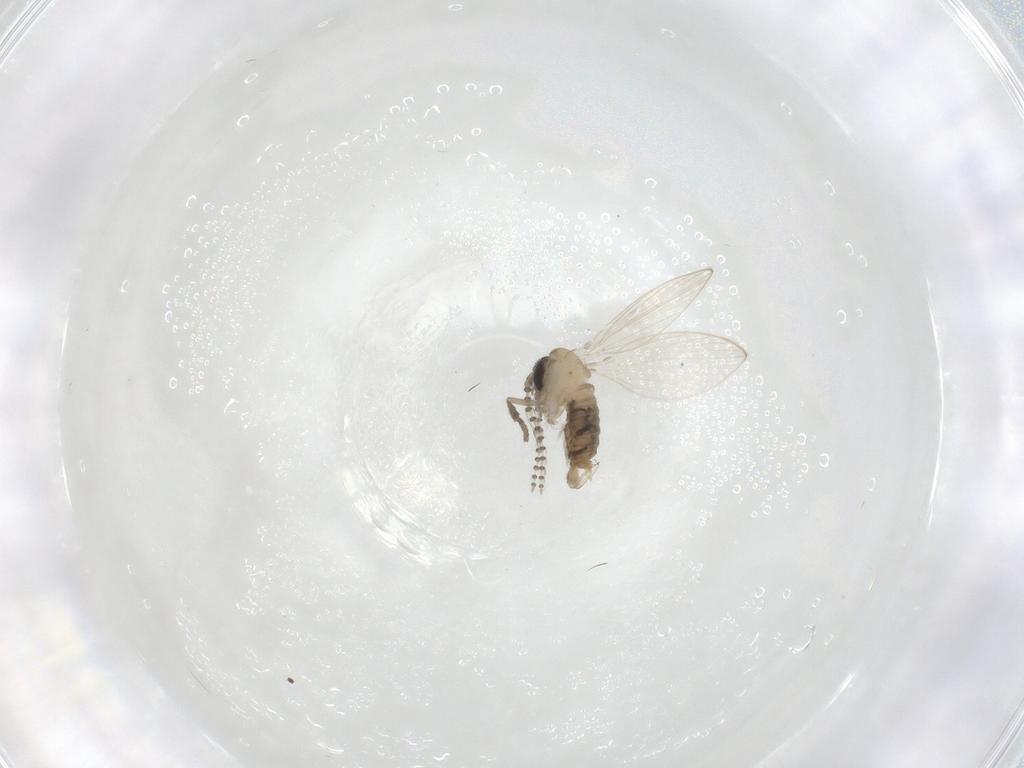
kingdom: Animalia
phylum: Arthropoda
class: Insecta
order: Diptera
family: Psychodidae
